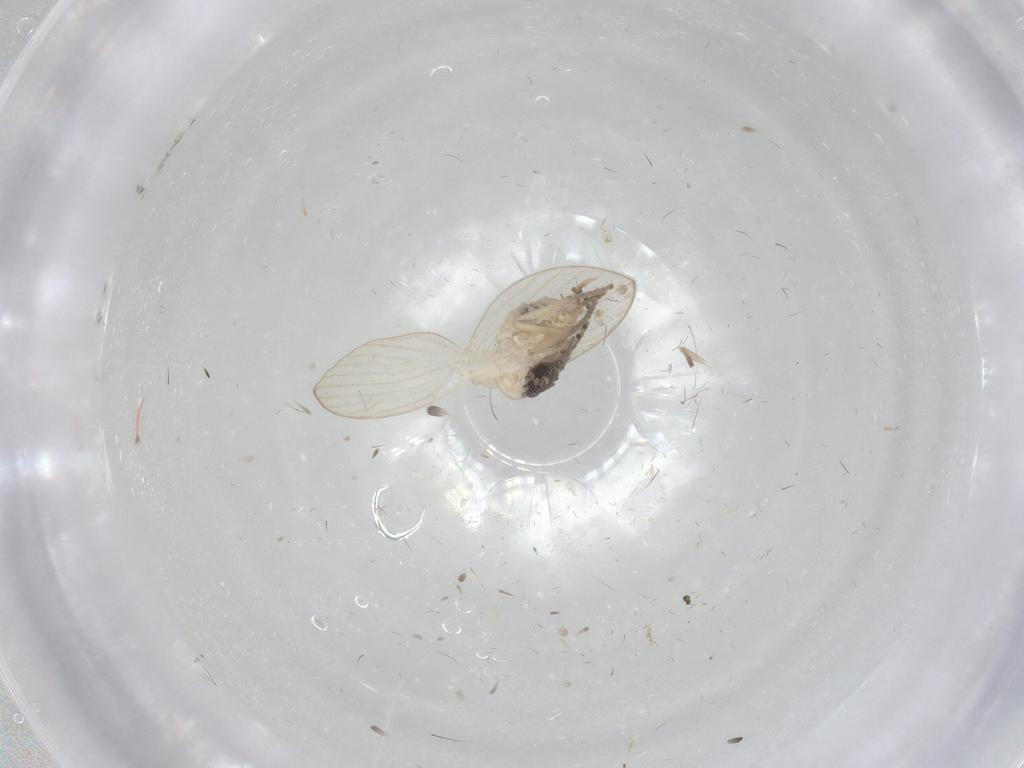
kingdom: Animalia
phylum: Arthropoda
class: Insecta
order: Diptera
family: Psychodidae
